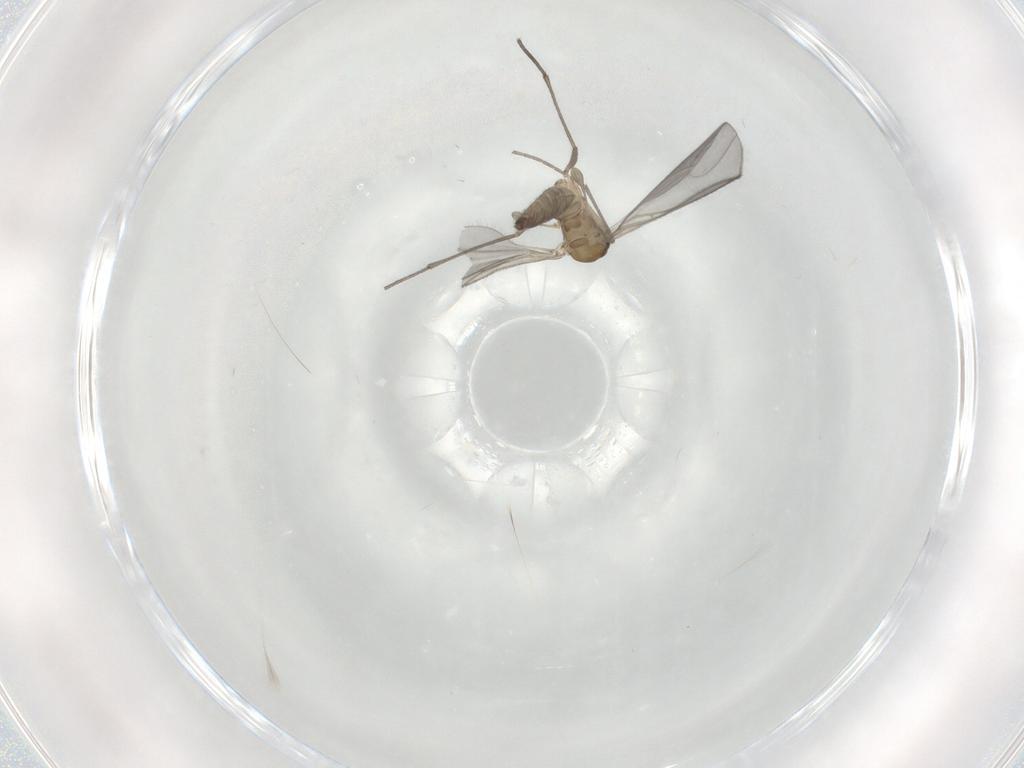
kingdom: Animalia
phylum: Arthropoda
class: Insecta
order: Diptera
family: Sciaridae
